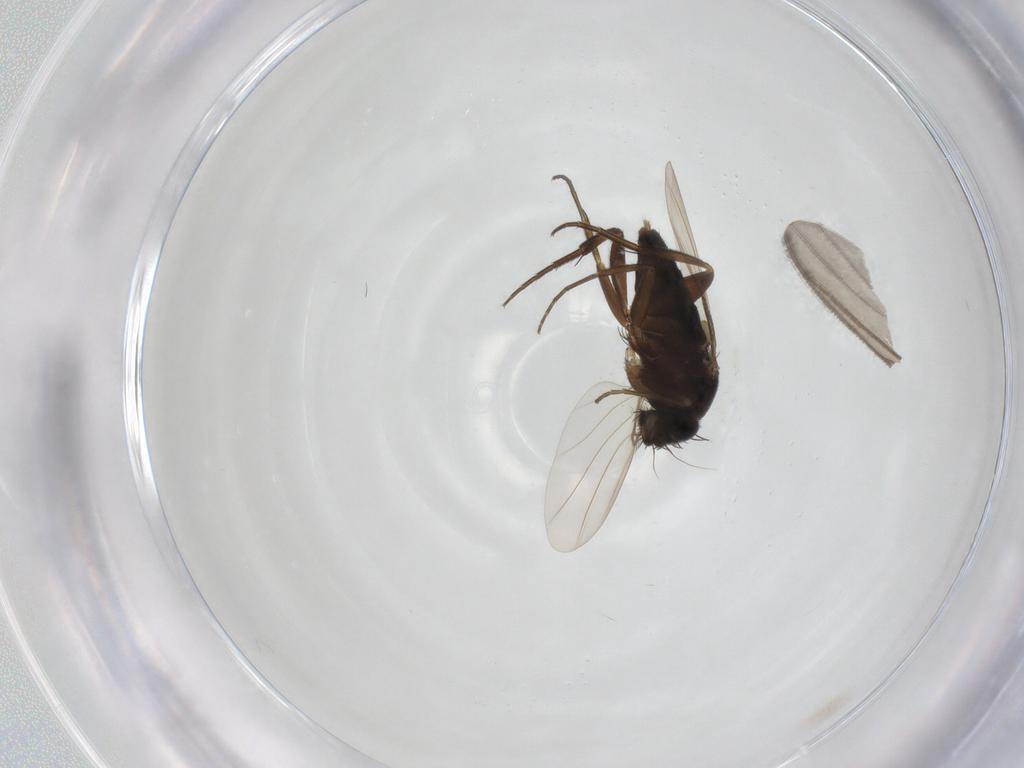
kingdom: Animalia
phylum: Arthropoda
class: Insecta
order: Diptera
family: Phoridae
